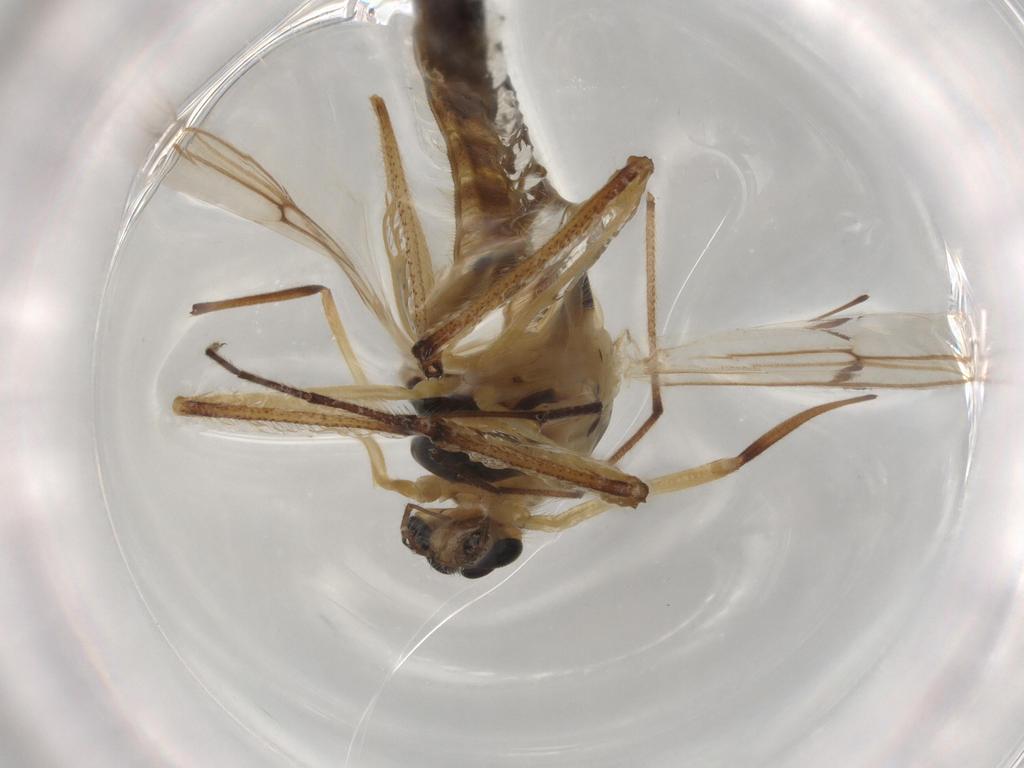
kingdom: Animalia
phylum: Arthropoda
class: Insecta
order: Diptera
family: Anthomyiidae
